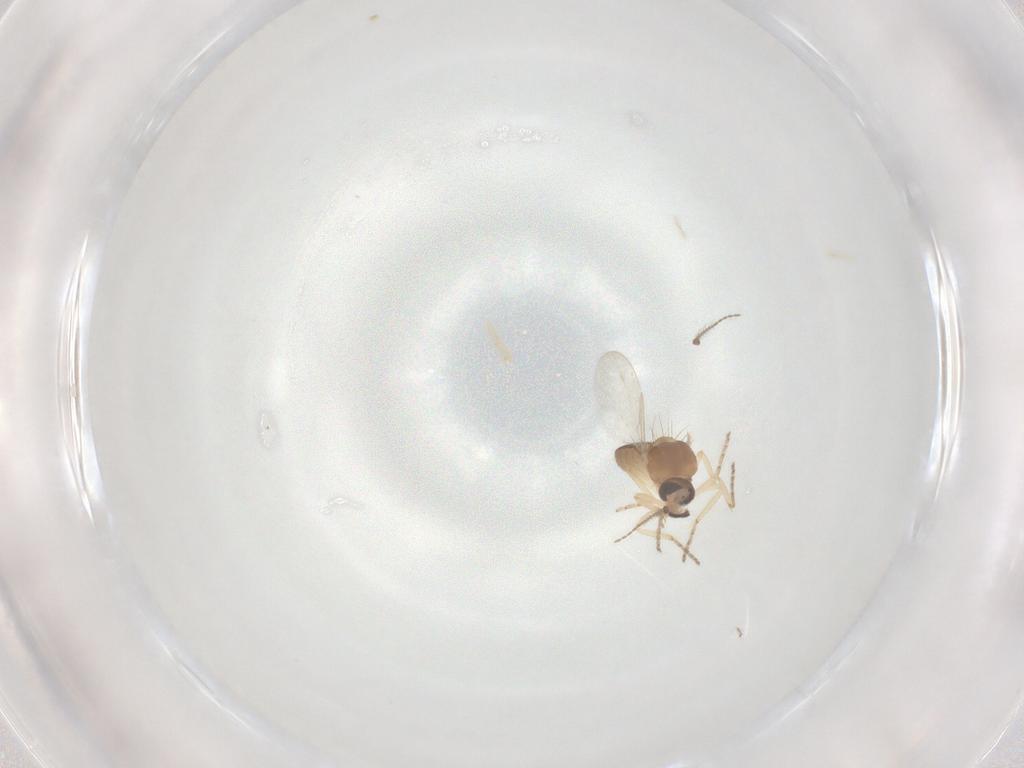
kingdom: Animalia
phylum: Arthropoda
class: Insecta
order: Diptera
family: Ceratopogonidae
